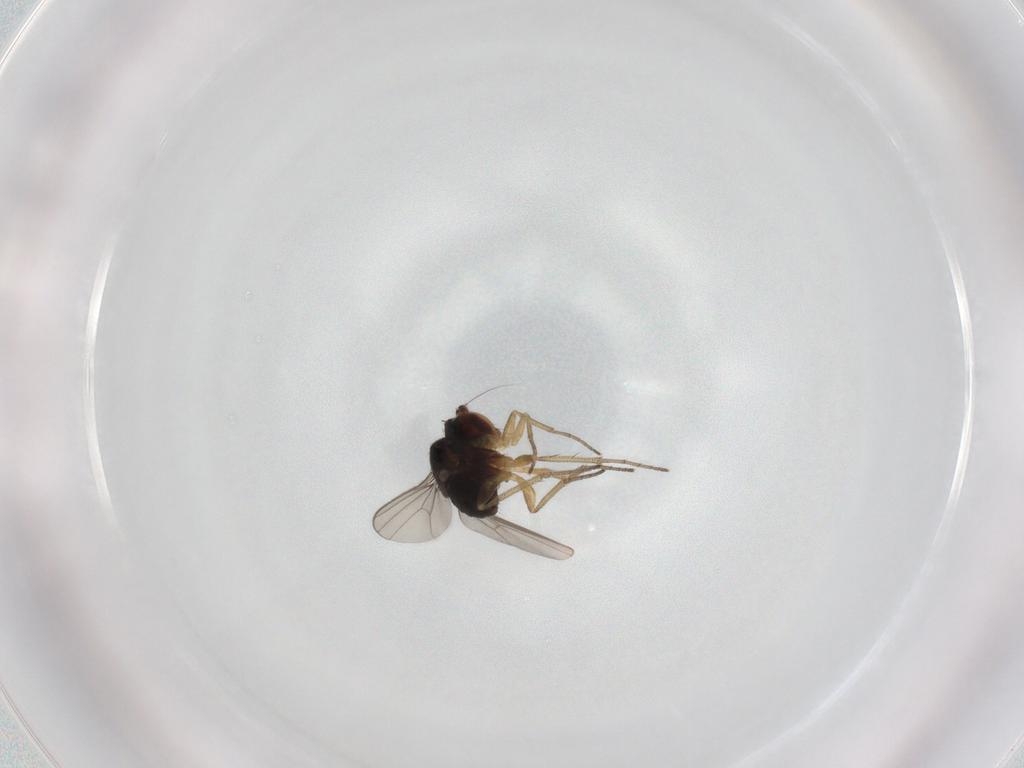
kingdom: Animalia
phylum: Arthropoda
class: Insecta
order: Diptera
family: Dolichopodidae
